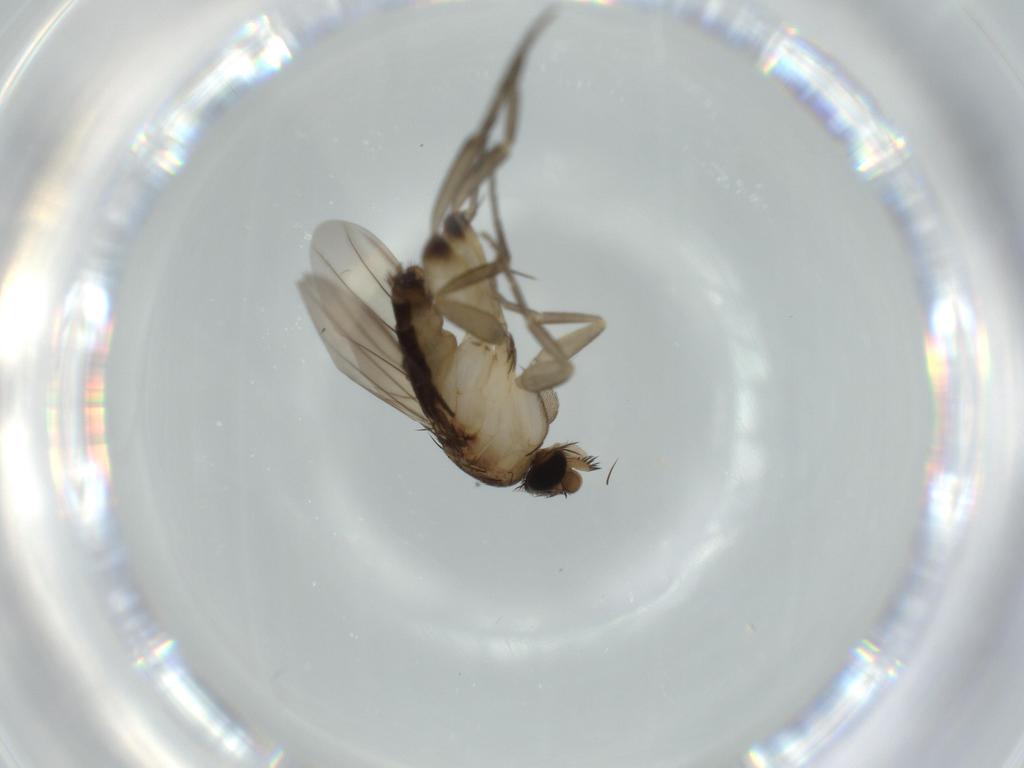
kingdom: Animalia
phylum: Arthropoda
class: Insecta
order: Diptera
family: Phoridae
